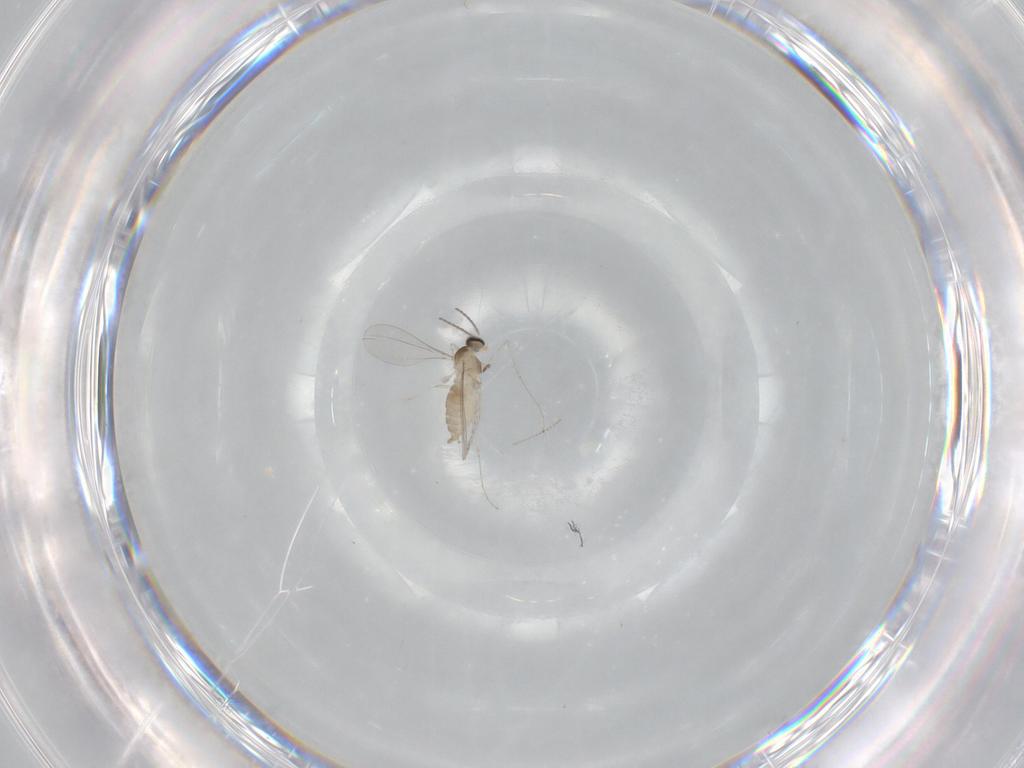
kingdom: Animalia
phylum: Arthropoda
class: Insecta
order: Diptera
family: Cecidomyiidae
